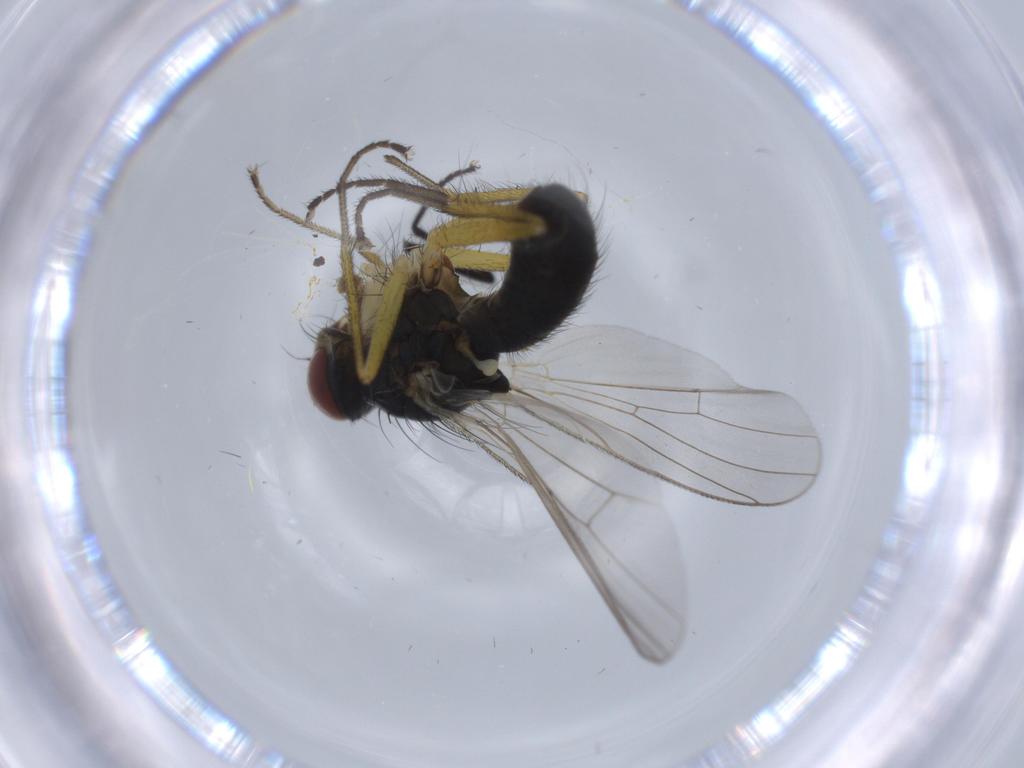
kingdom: Animalia
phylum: Arthropoda
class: Insecta
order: Diptera
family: Muscidae
